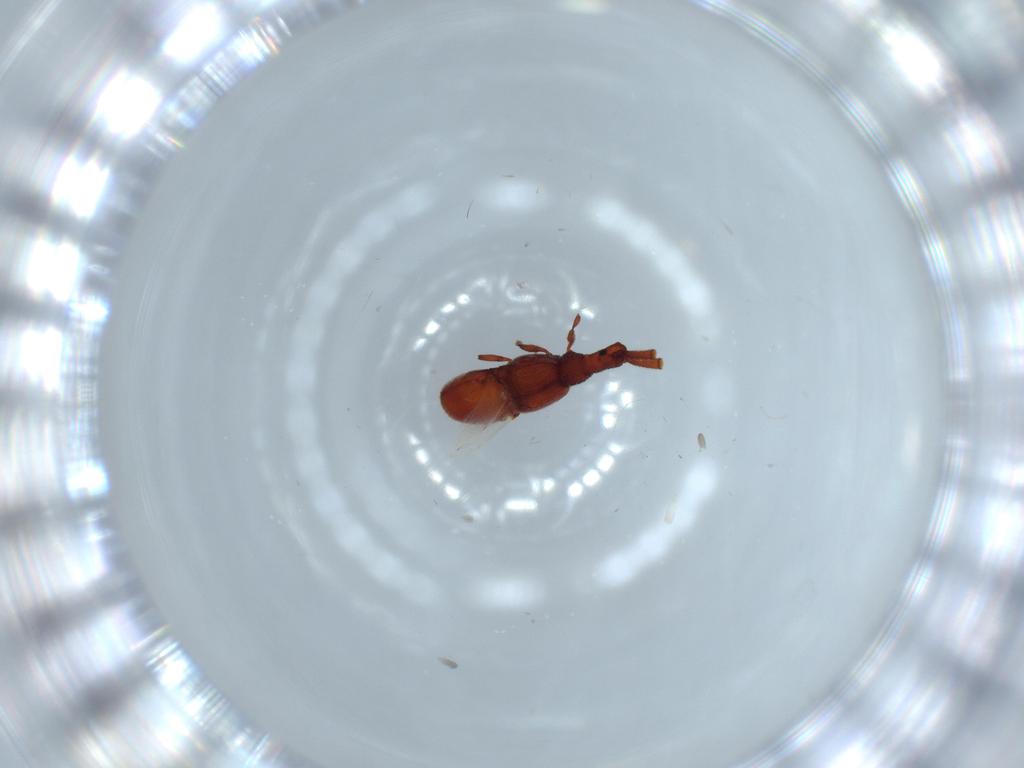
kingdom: Animalia
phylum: Arthropoda
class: Insecta
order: Coleoptera
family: Staphylinidae
